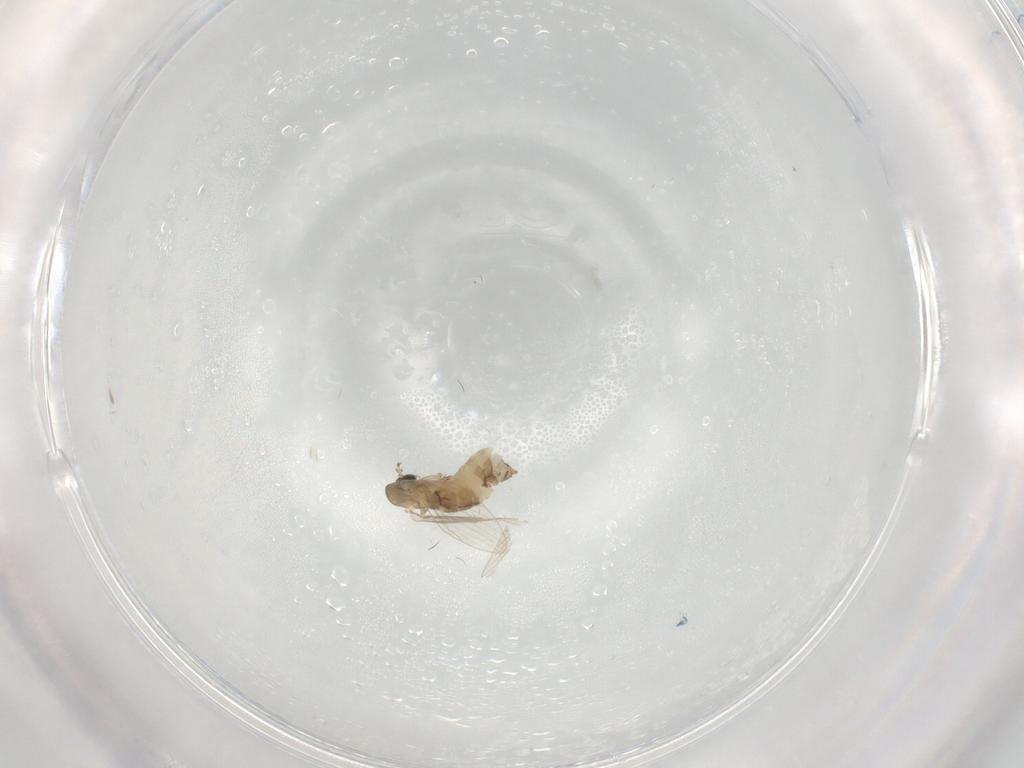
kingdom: Animalia
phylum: Arthropoda
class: Insecta
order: Diptera
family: Psychodidae
